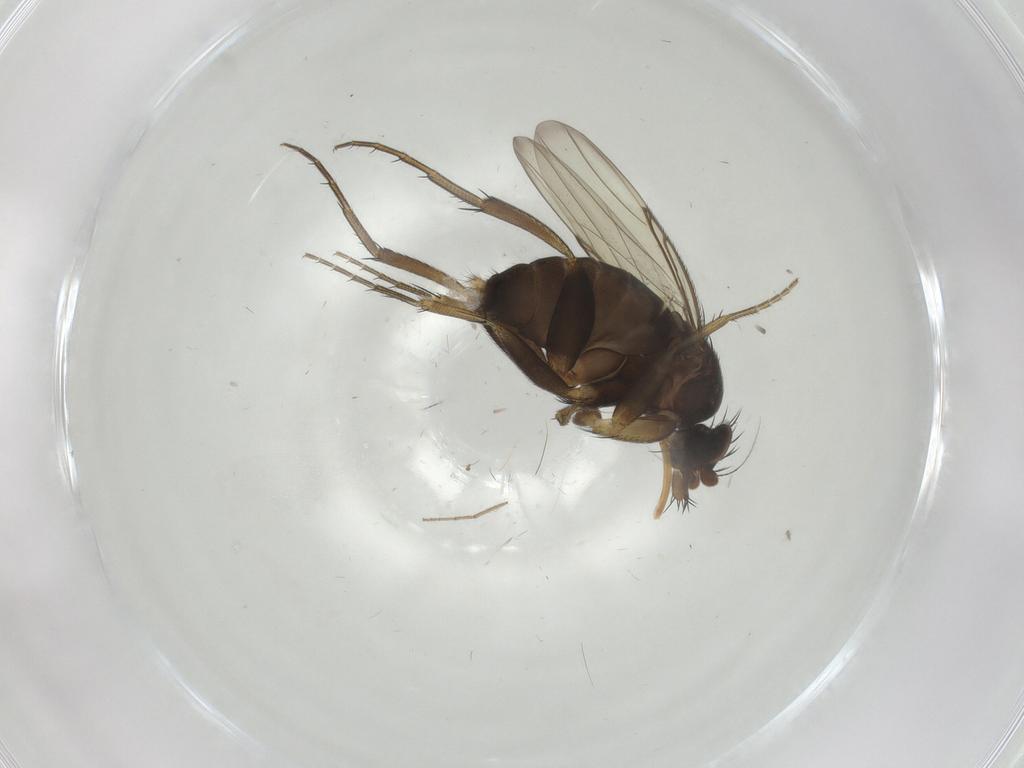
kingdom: Animalia
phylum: Arthropoda
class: Insecta
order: Diptera
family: Phoridae
